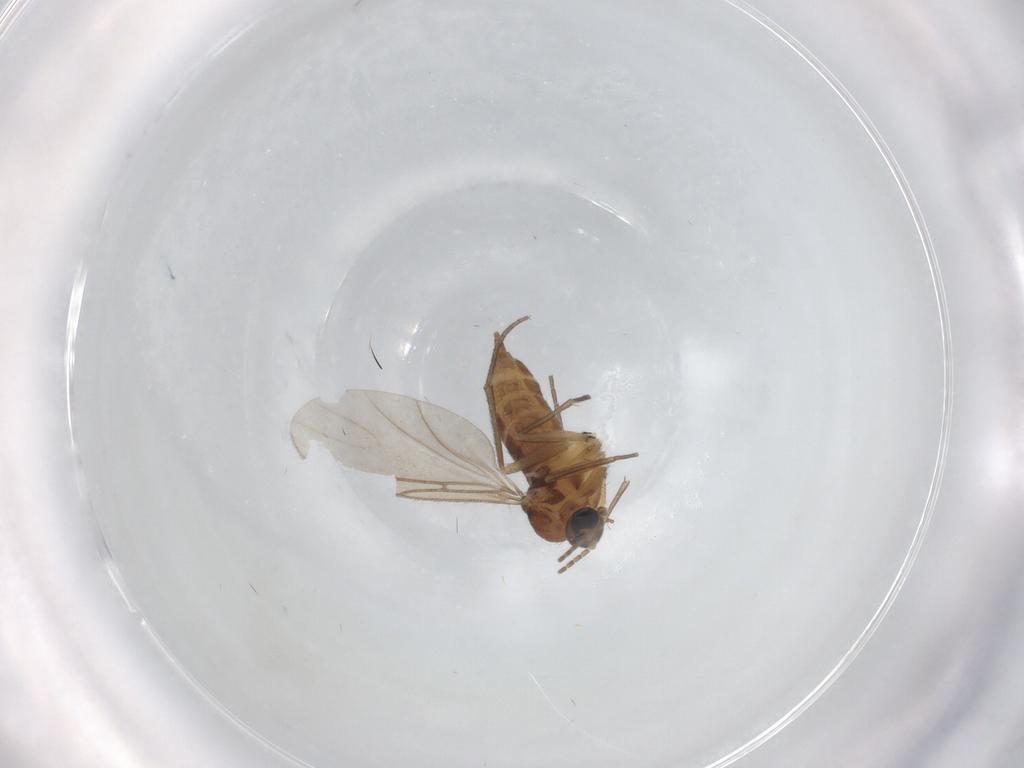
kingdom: Animalia
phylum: Arthropoda
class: Insecta
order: Diptera
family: Sciaridae
